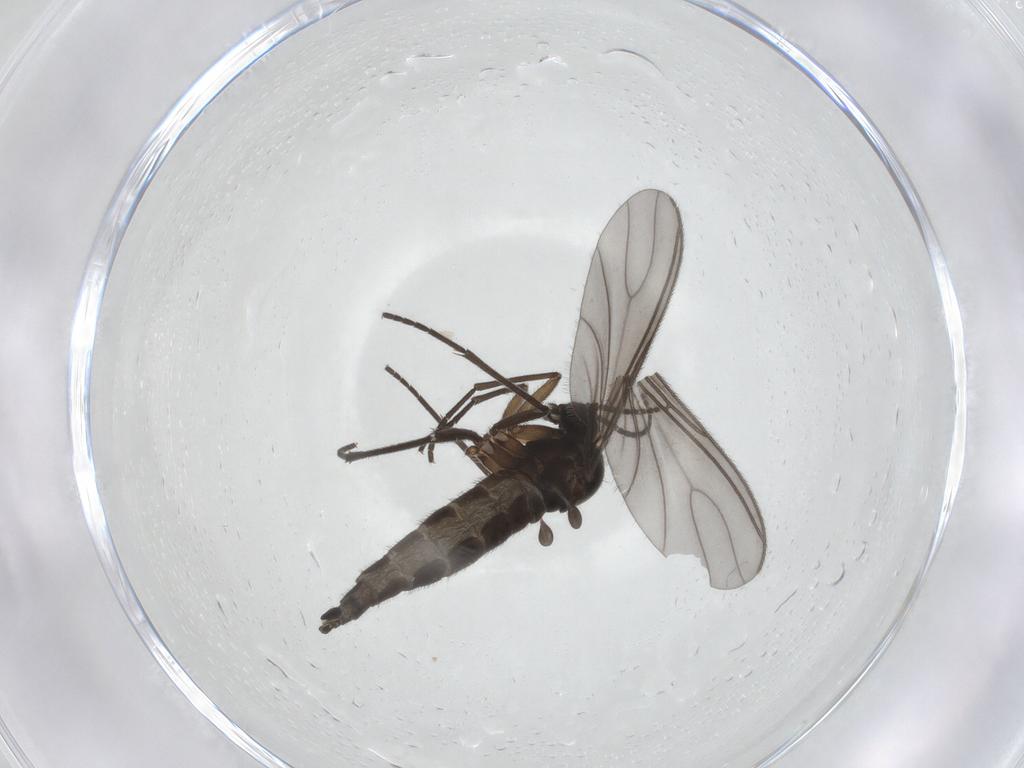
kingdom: Animalia
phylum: Arthropoda
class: Insecta
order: Diptera
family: Sciaridae
